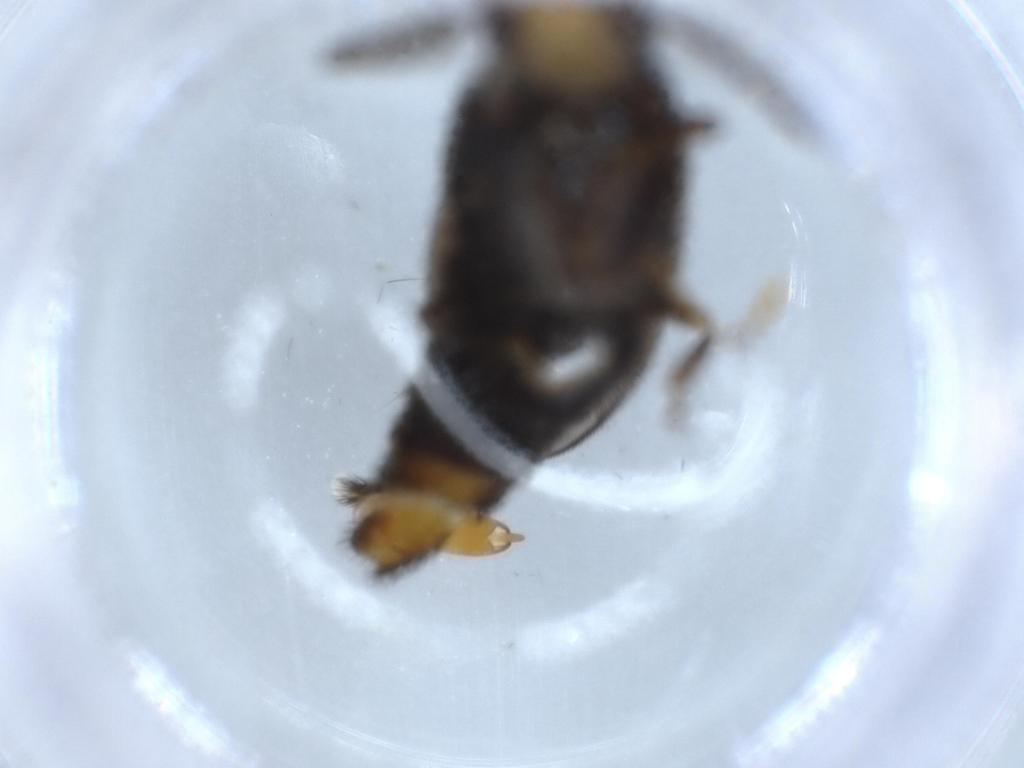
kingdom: Animalia
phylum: Arthropoda
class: Insecta
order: Coleoptera
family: Phengodidae
